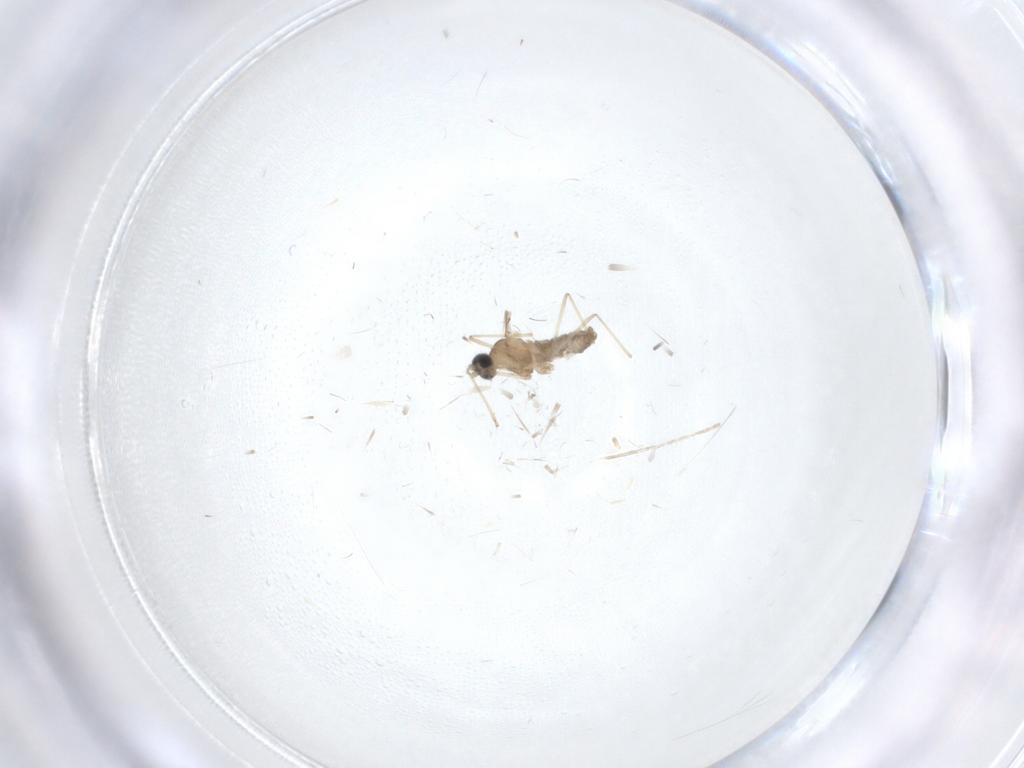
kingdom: Animalia
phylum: Arthropoda
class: Insecta
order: Diptera
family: Cecidomyiidae
